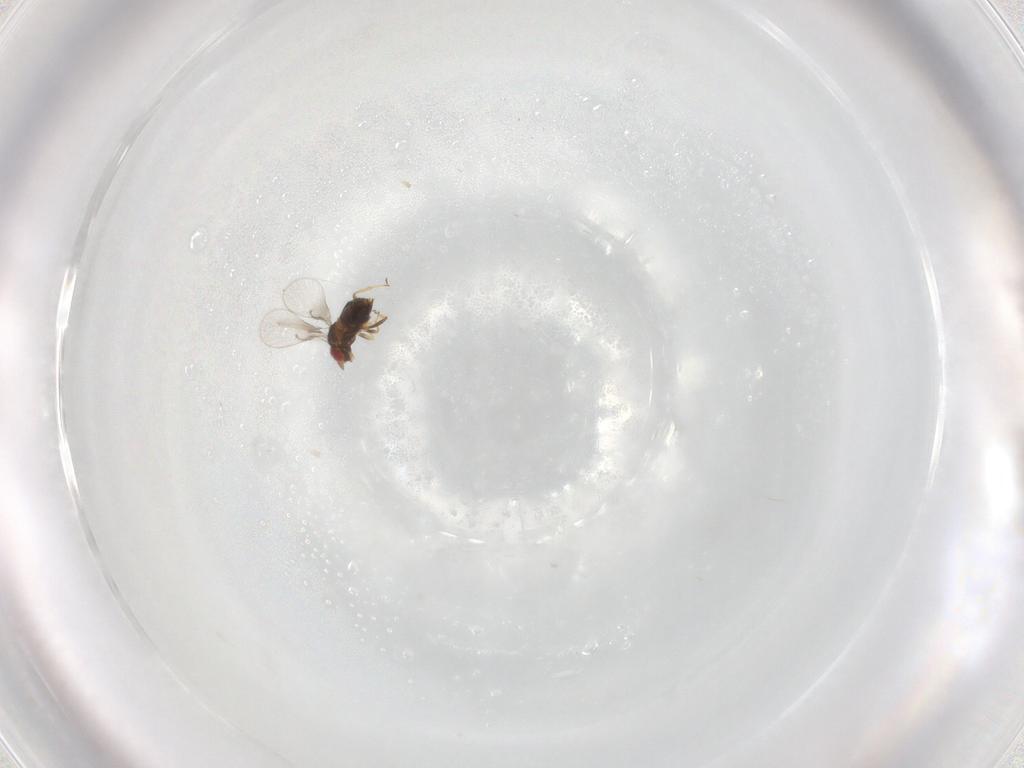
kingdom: Animalia
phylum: Arthropoda
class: Insecta
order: Hymenoptera
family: Trichogrammatidae
